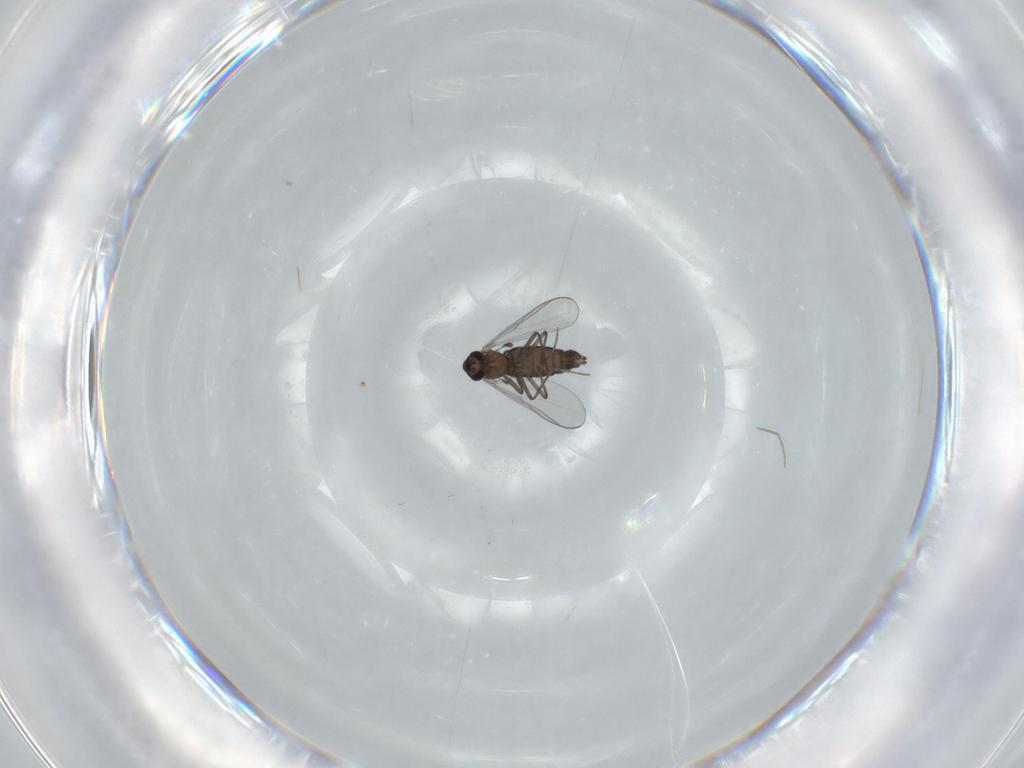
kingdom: Animalia
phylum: Arthropoda
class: Insecta
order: Diptera
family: Chironomidae
